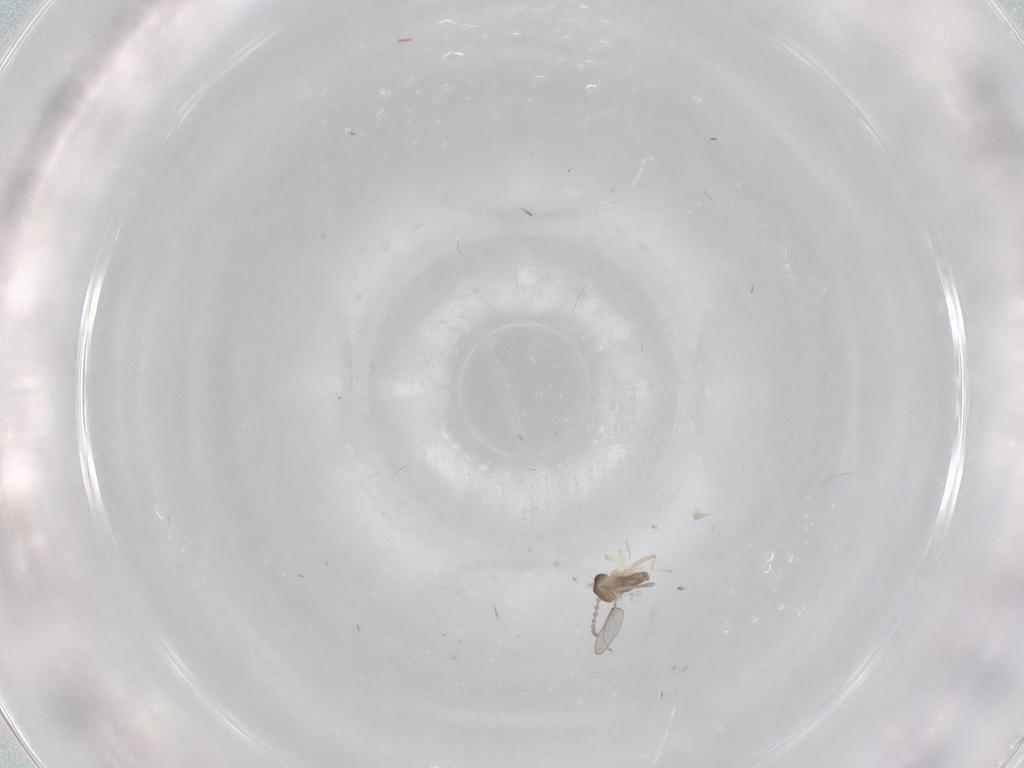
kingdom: Animalia
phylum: Arthropoda
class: Insecta
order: Diptera
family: Cecidomyiidae
